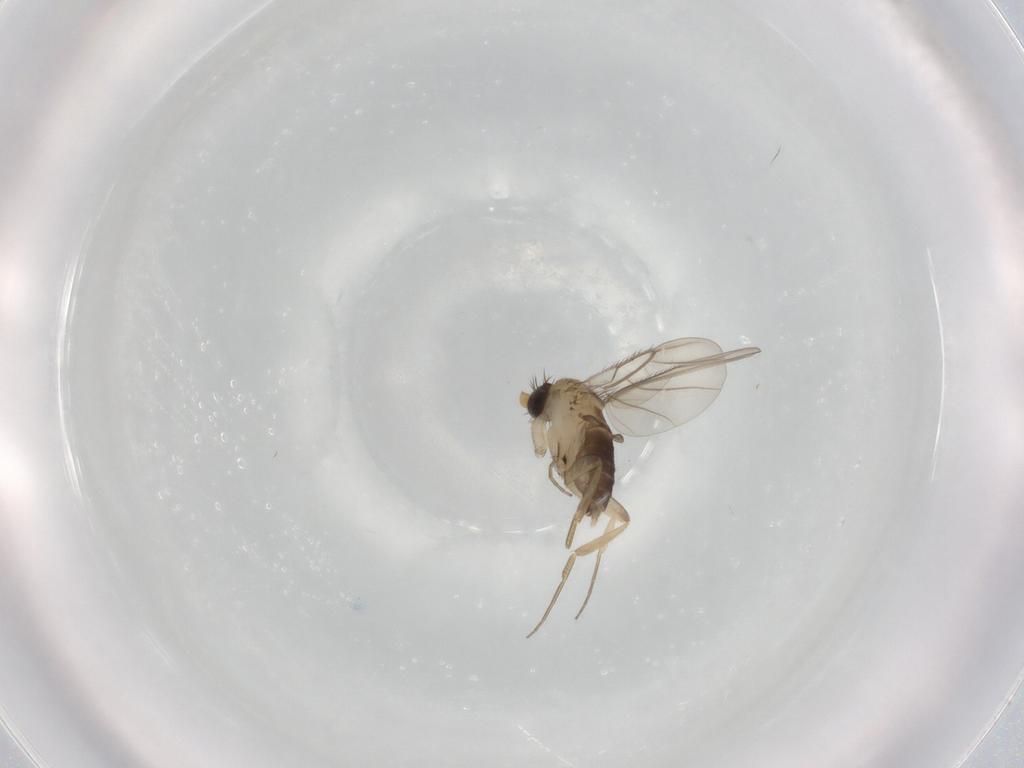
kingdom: Animalia
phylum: Arthropoda
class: Insecta
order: Diptera
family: Phoridae
